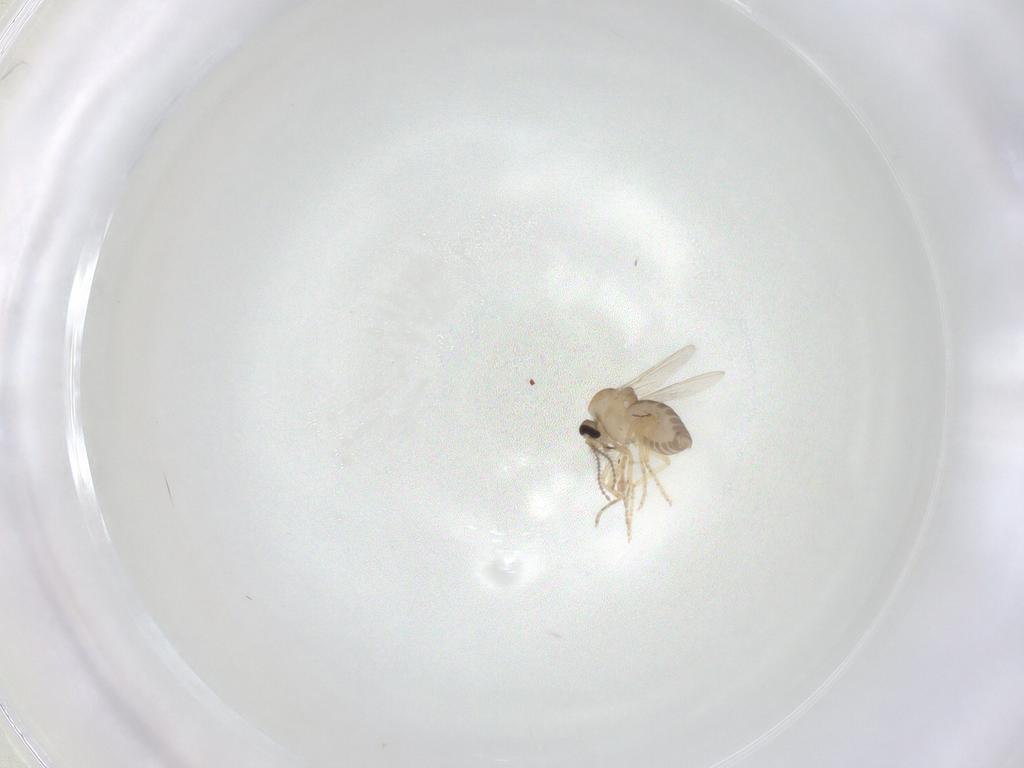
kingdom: Animalia
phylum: Arthropoda
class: Insecta
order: Diptera
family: Ceratopogonidae
